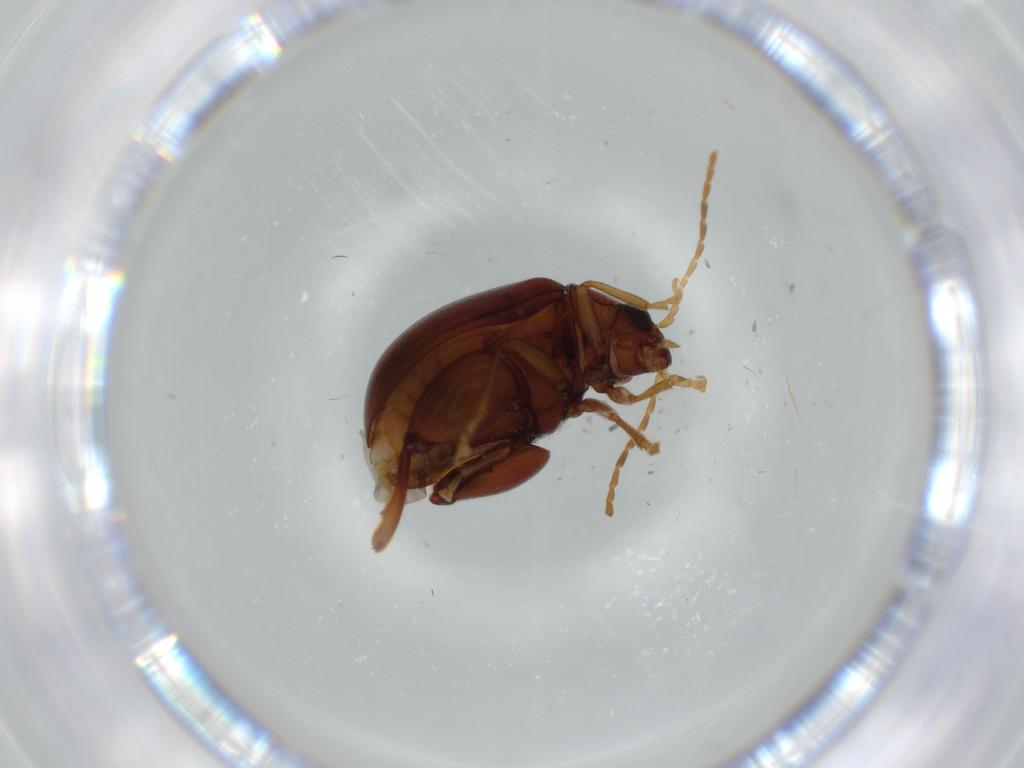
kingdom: Animalia
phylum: Arthropoda
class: Insecta
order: Coleoptera
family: Chrysomelidae
